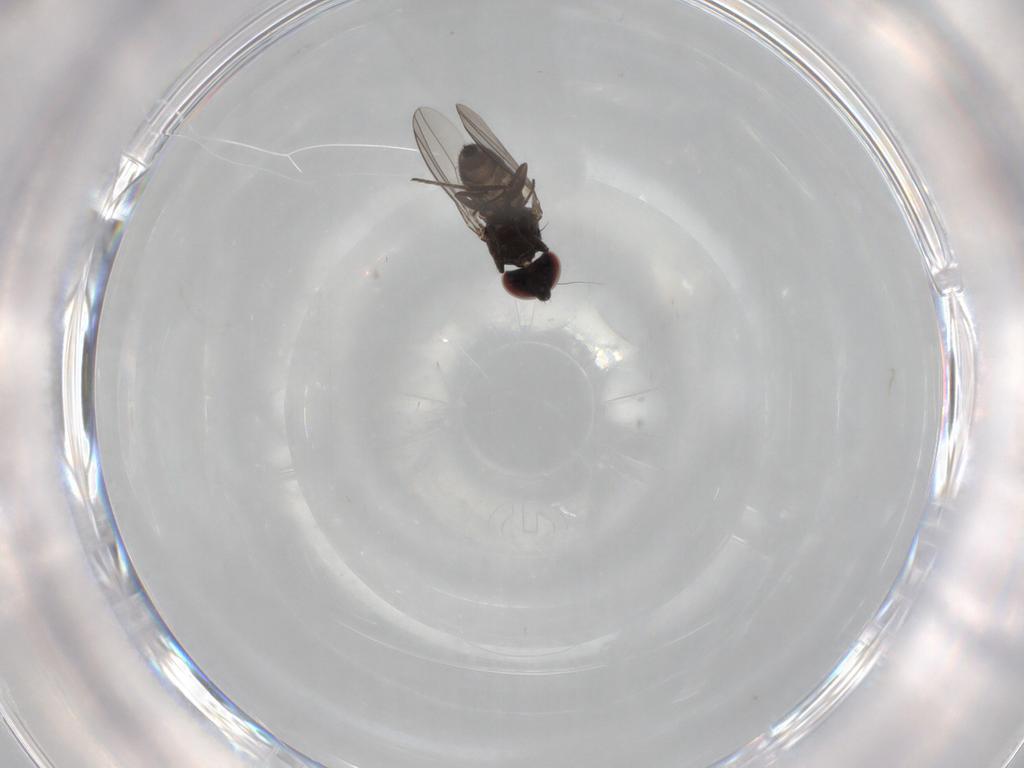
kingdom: Animalia
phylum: Arthropoda
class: Insecta
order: Diptera
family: Dolichopodidae
